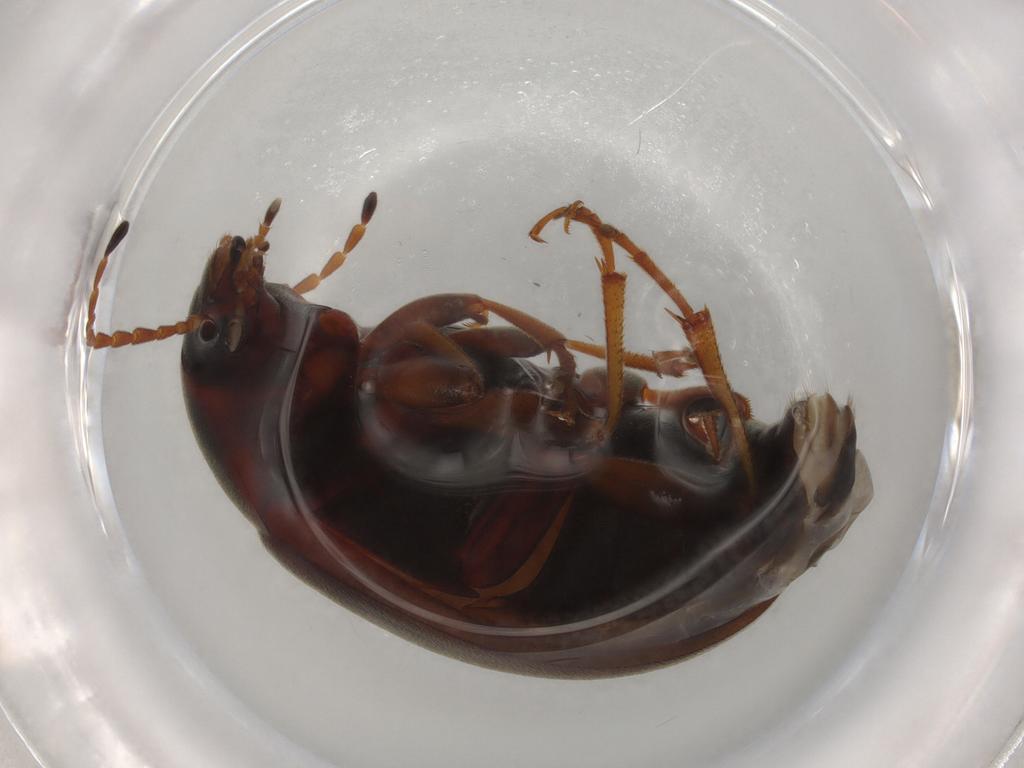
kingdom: Animalia
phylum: Arthropoda
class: Insecta
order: Coleoptera
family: Tenebrionidae
